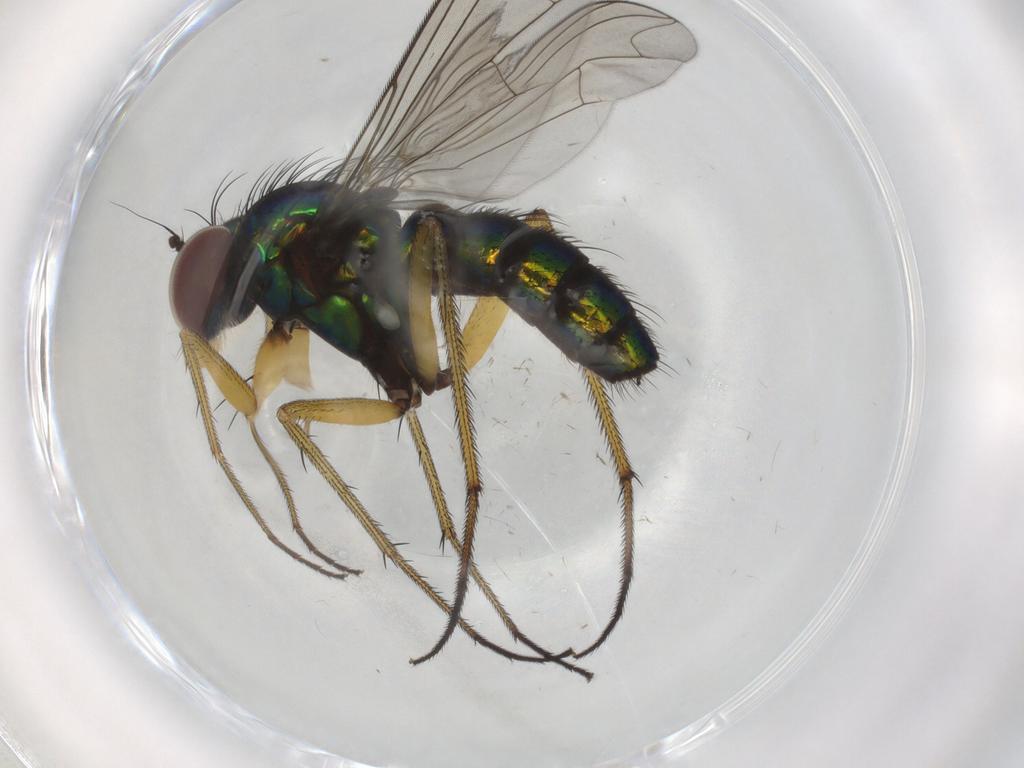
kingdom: Animalia
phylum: Arthropoda
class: Insecta
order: Diptera
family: Dolichopodidae
